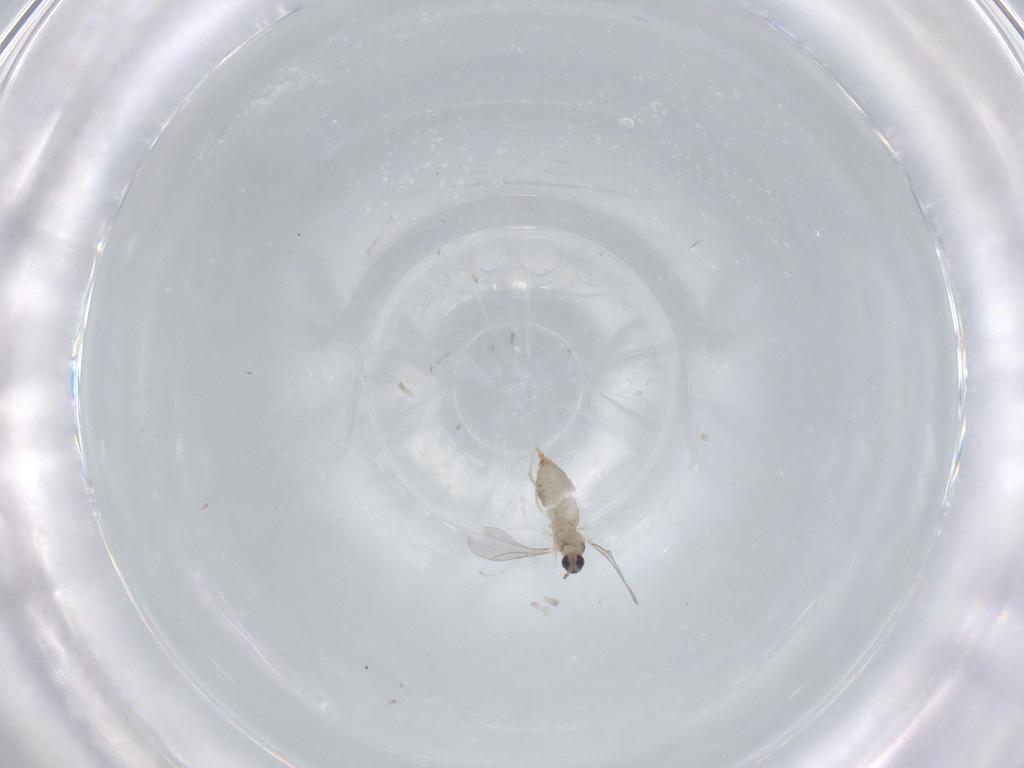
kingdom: Animalia
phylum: Arthropoda
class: Insecta
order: Diptera
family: Cecidomyiidae
